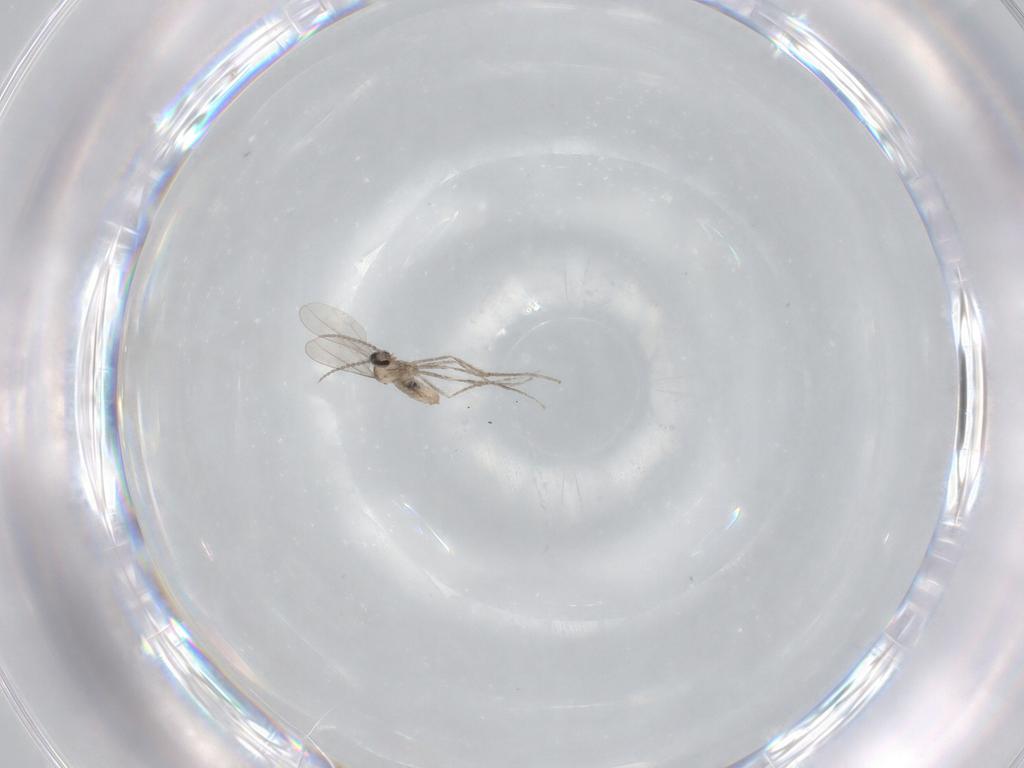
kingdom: Animalia
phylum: Arthropoda
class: Insecta
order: Diptera
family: Cecidomyiidae
